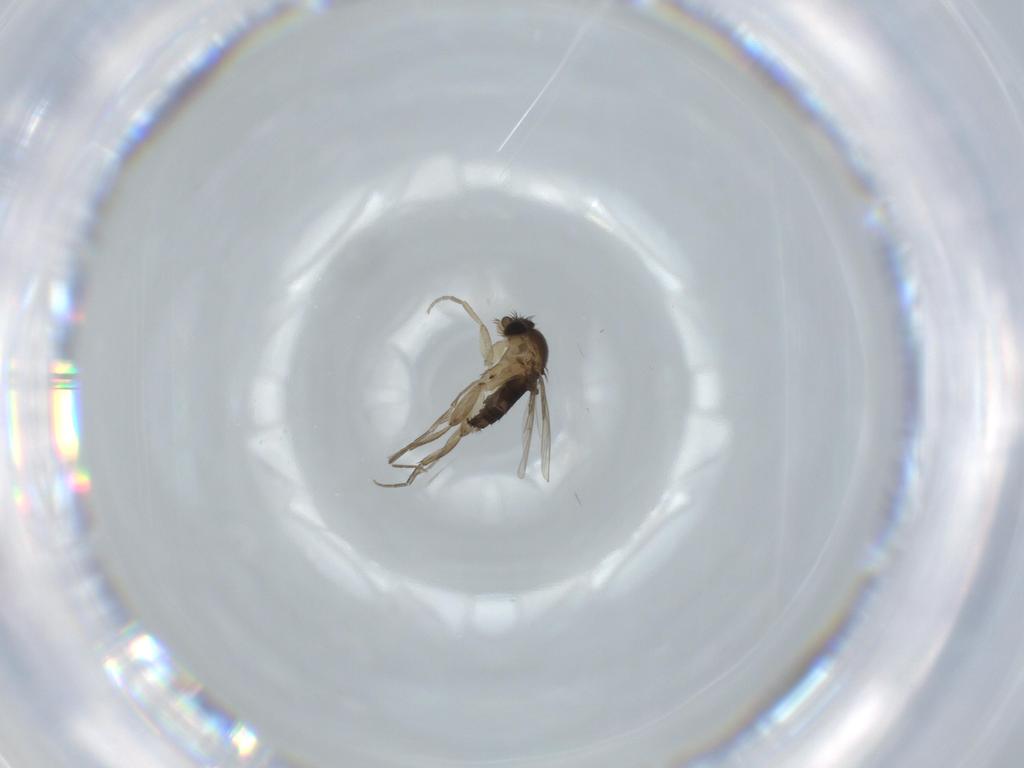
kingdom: Animalia
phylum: Arthropoda
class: Insecta
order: Diptera
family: Phoridae
